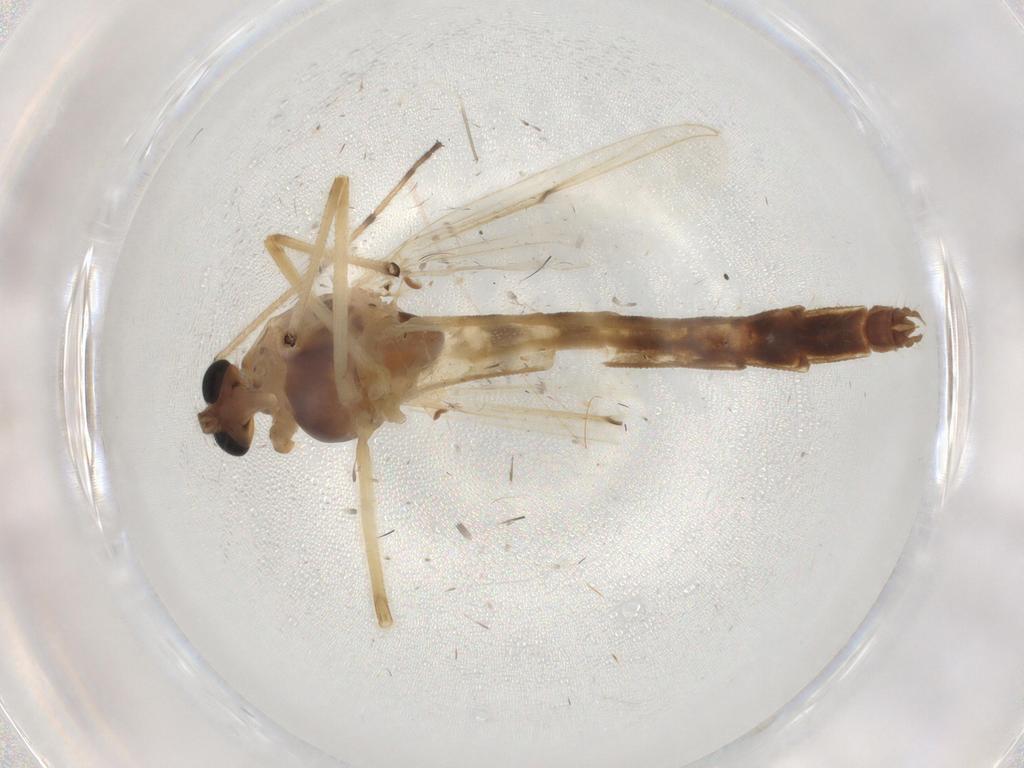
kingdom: Animalia
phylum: Arthropoda
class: Insecta
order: Diptera
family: Chironomidae
